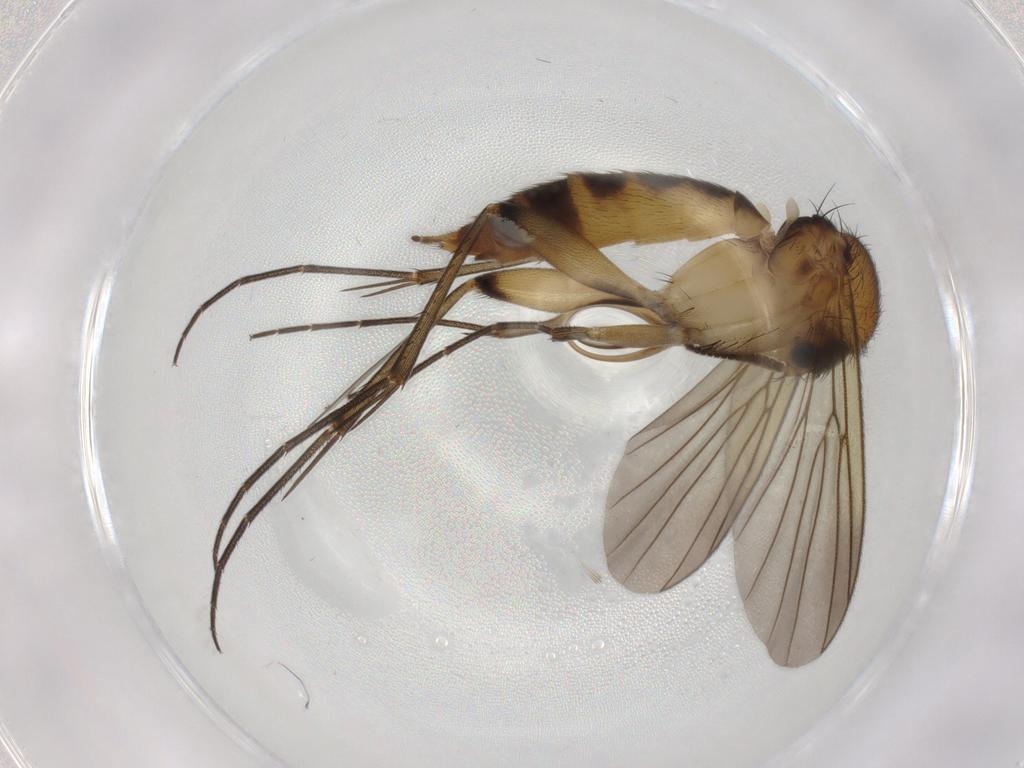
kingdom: Animalia
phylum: Arthropoda
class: Insecta
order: Diptera
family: Mycetophilidae
